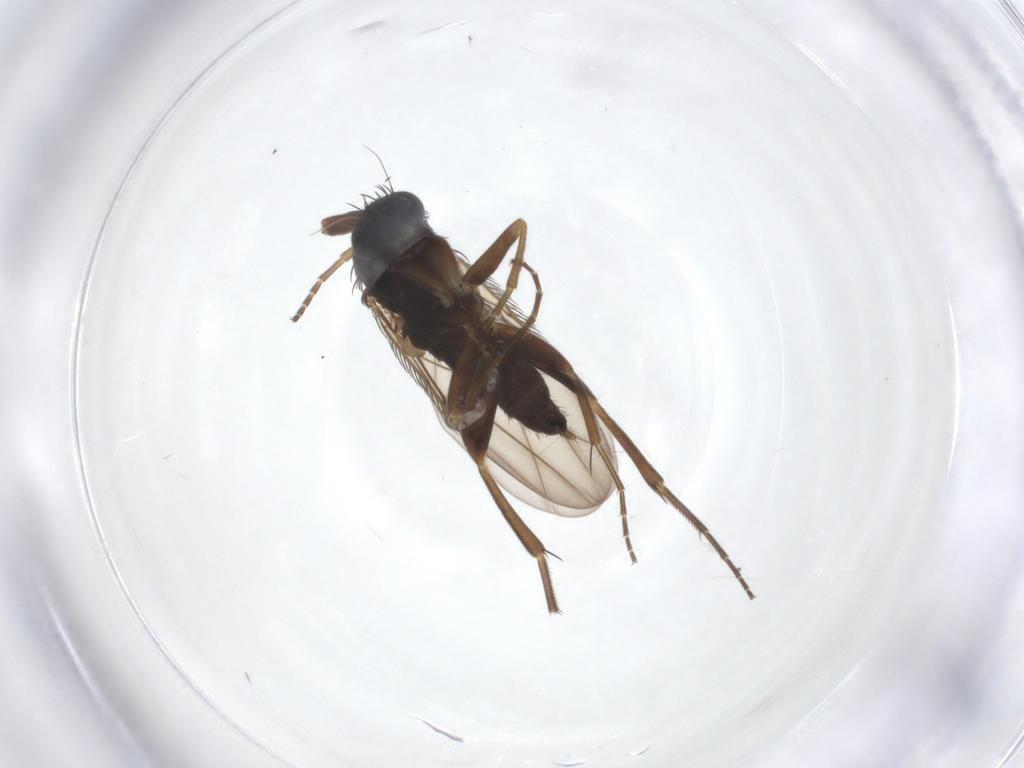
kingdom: Animalia
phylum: Arthropoda
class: Insecta
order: Diptera
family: Phoridae
